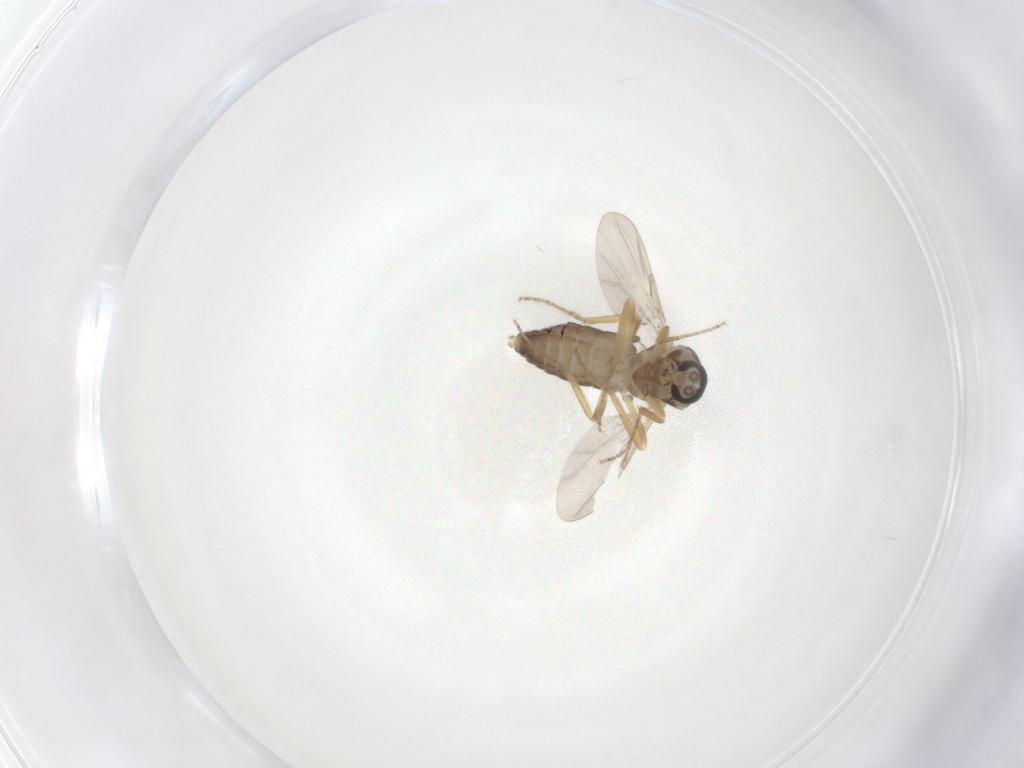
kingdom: Animalia
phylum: Arthropoda
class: Insecta
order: Diptera
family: Ceratopogonidae
